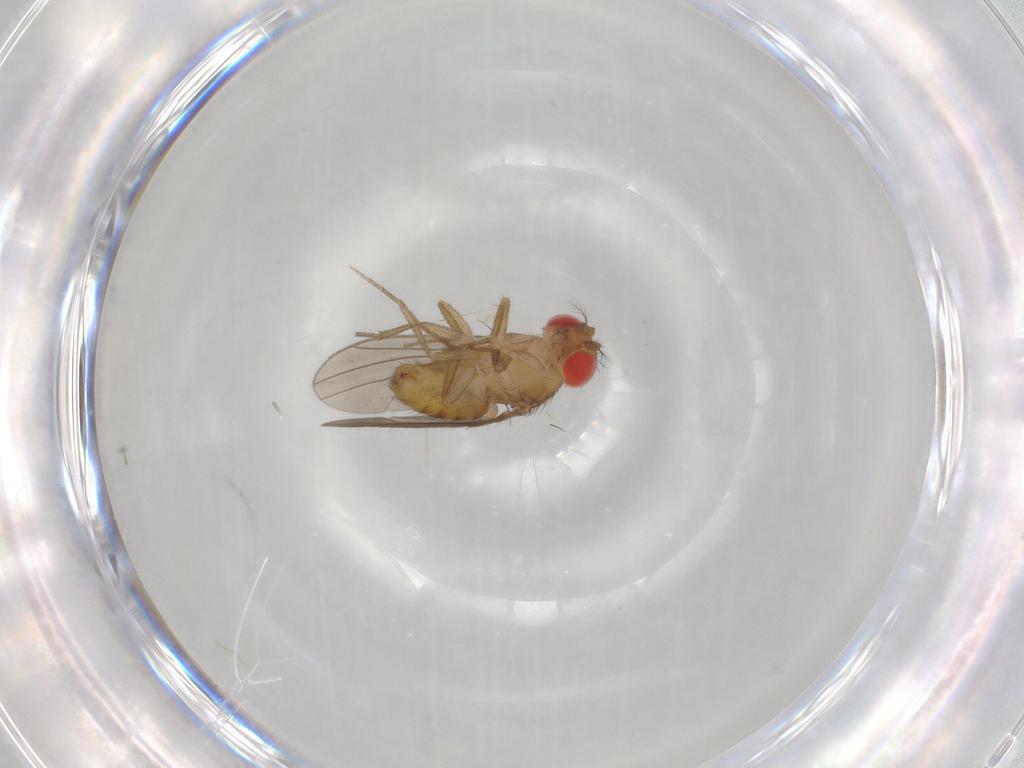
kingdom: Animalia
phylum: Arthropoda
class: Insecta
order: Diptera
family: Drosophilidae
